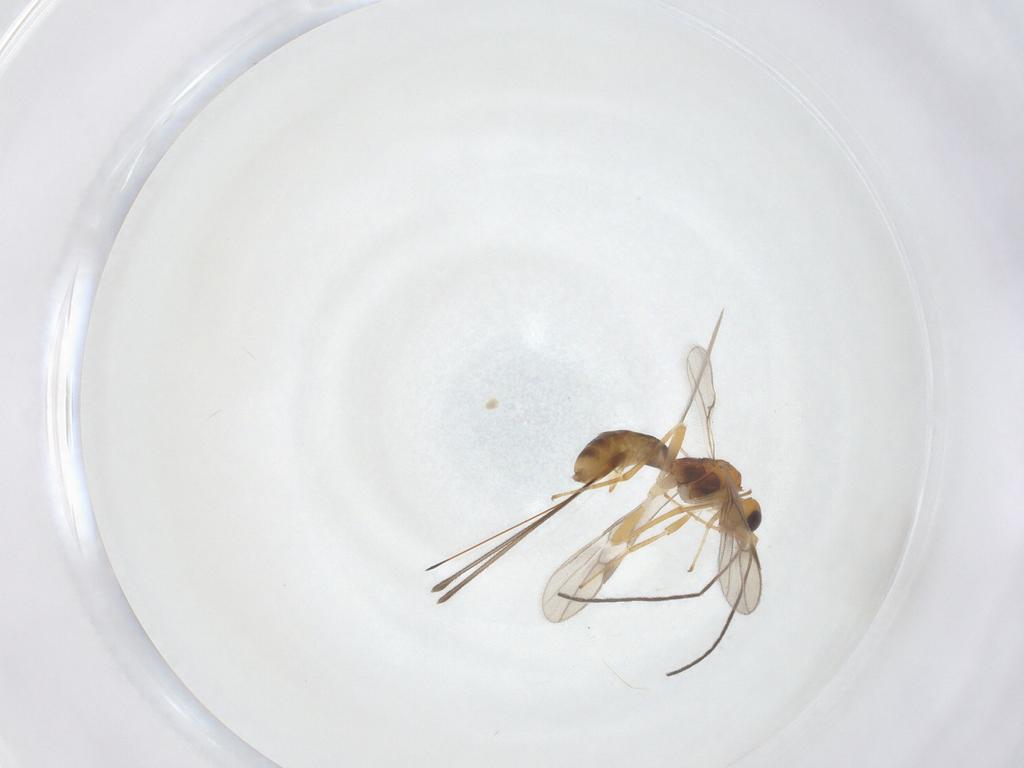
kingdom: Animalia
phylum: Arthropoda
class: Insecta
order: Hymenoptera
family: Braconidae
